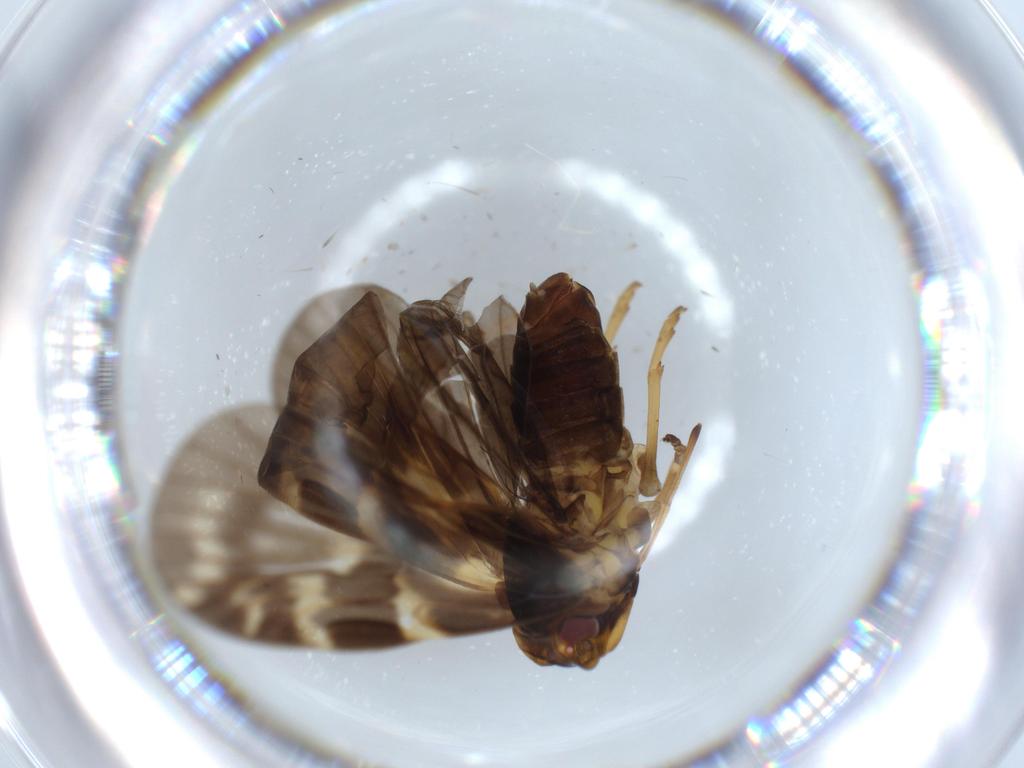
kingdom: Animalia
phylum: Arthropoda
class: Insecta
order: Hemiptera
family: Cixiidae
